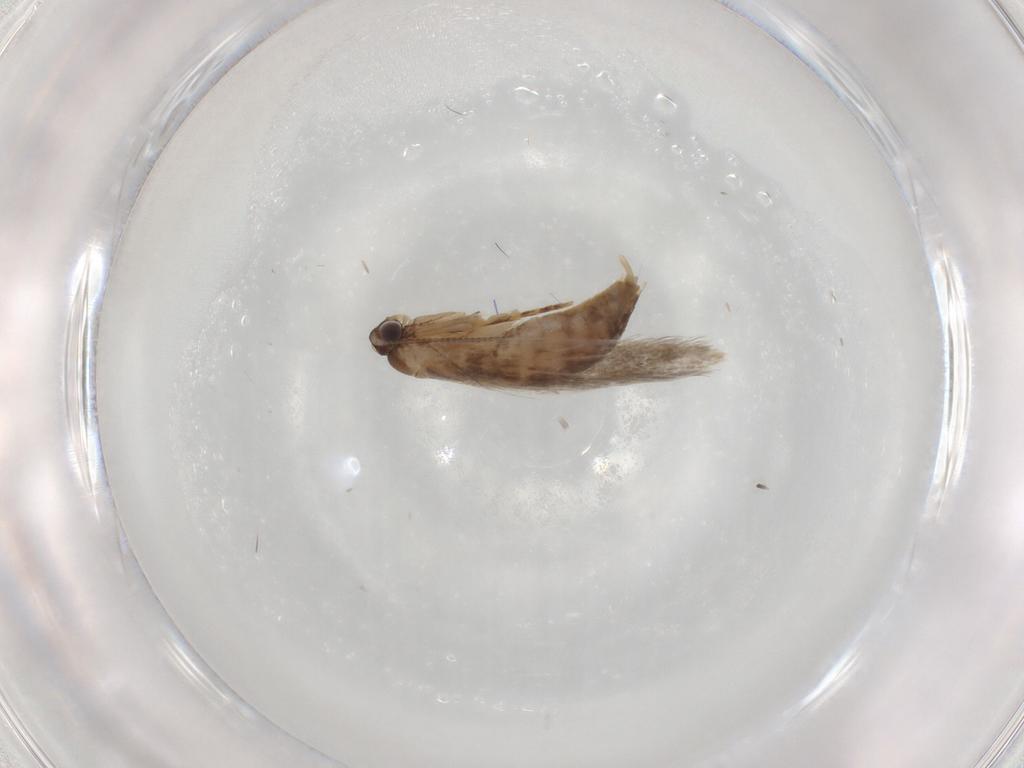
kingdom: Animalia
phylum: Arthropoda
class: Insecta
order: Lepidoptera
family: Tineidae
